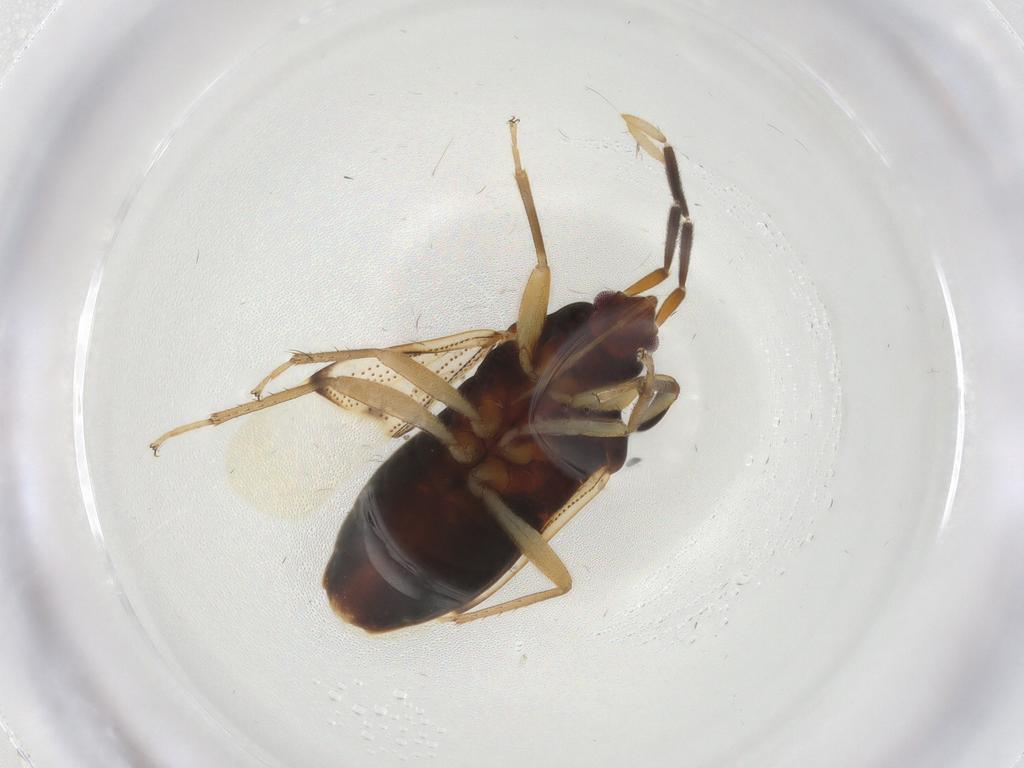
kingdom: Animalia
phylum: Arthropoda
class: Insecta
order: Hemiptera
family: Rhyparochromidae
